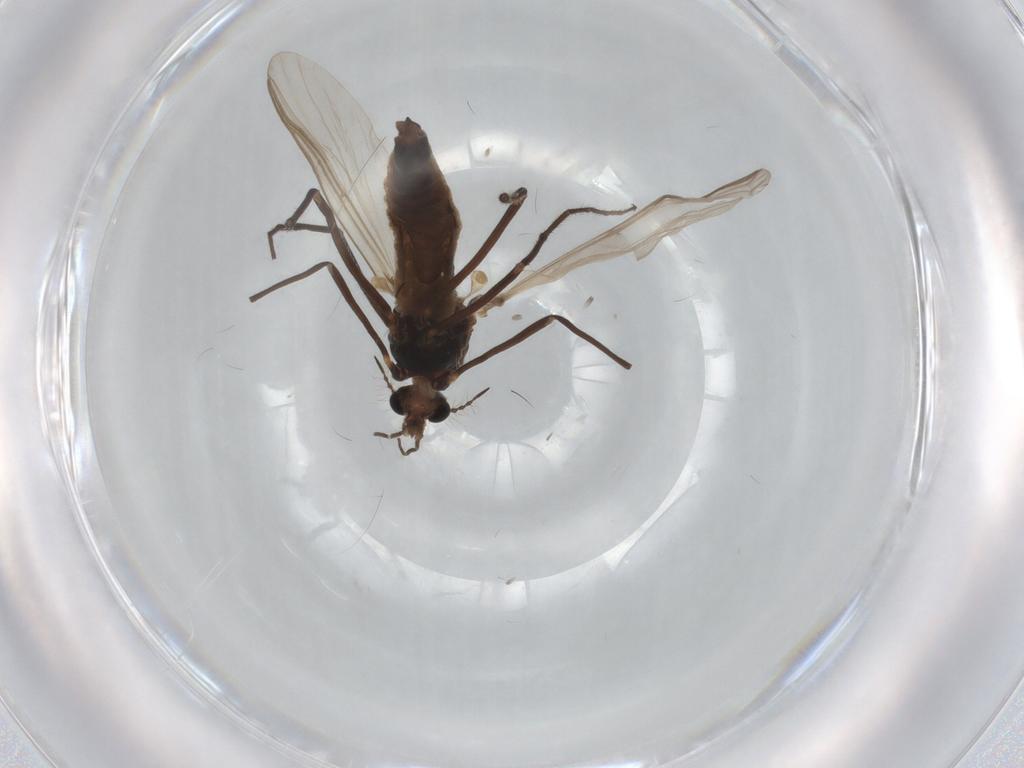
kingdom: Animalia
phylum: Arthropoda
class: Insecta
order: Diptera
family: Chironomidae
